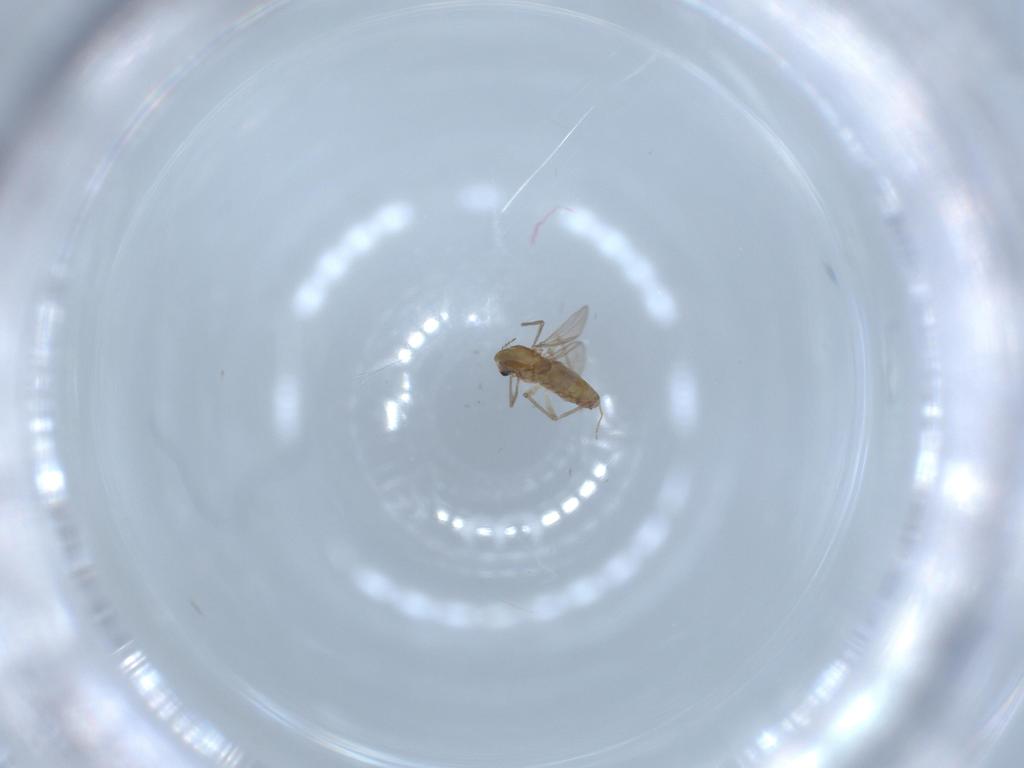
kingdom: Animalia
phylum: Arthropoda
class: Insecta
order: Diptera
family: Chironomidae
